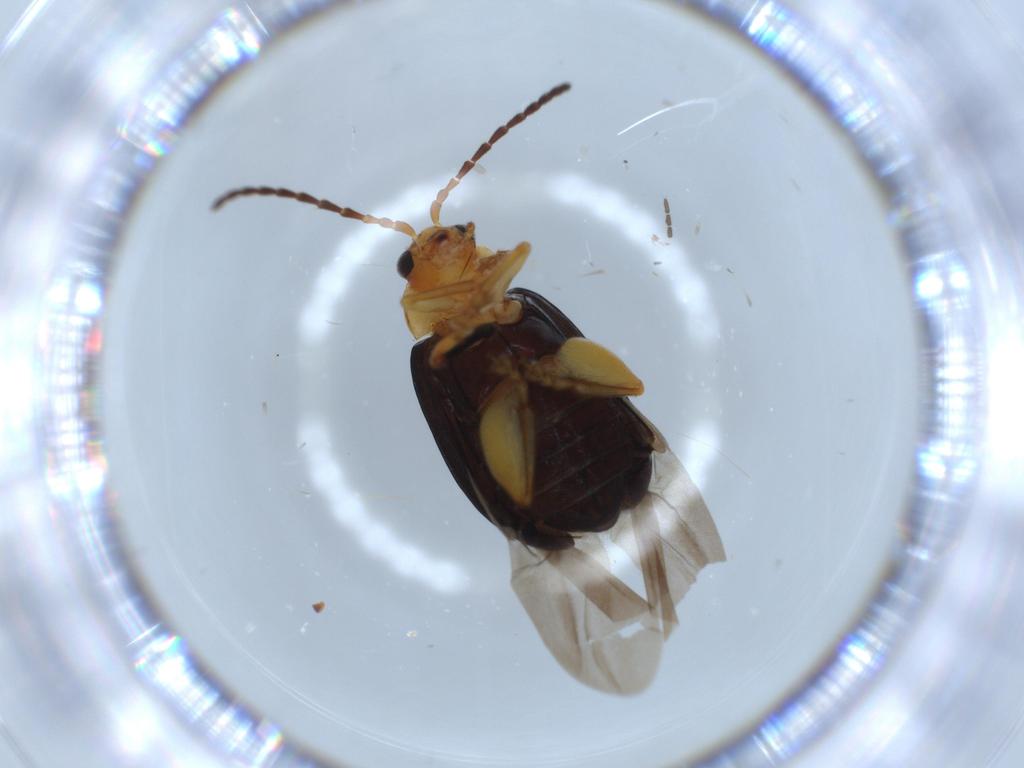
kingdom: Animalia
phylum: Arthropoda
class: Insecta
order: Coleoptera
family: Chrysomelidae
